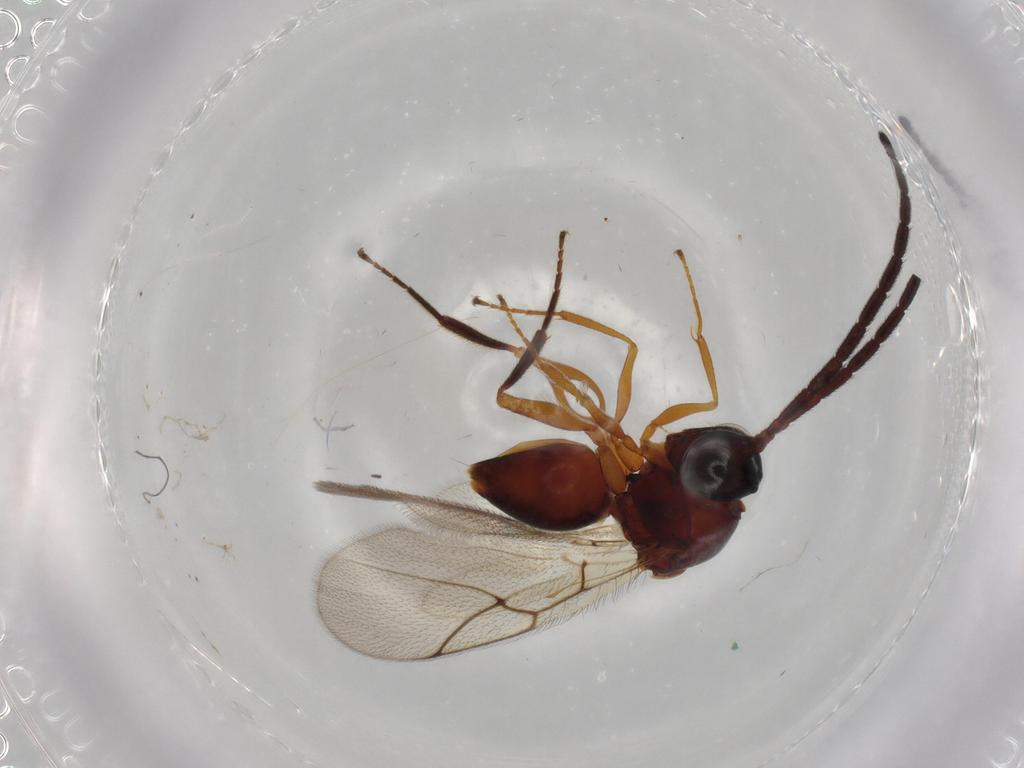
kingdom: Animalia
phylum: Arthropoda
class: Insecta
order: Hymenoptera
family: Figitidae
